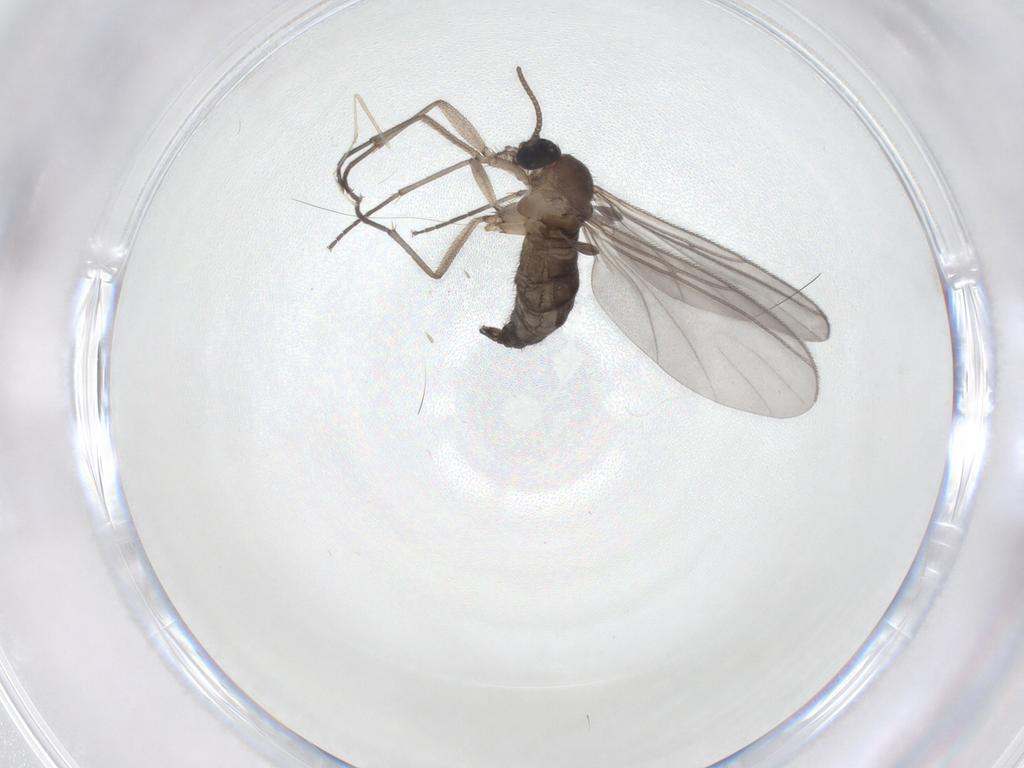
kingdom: Animalia
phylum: Arthropoda
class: Insecta
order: Diptera
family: Cecidomyiidae
